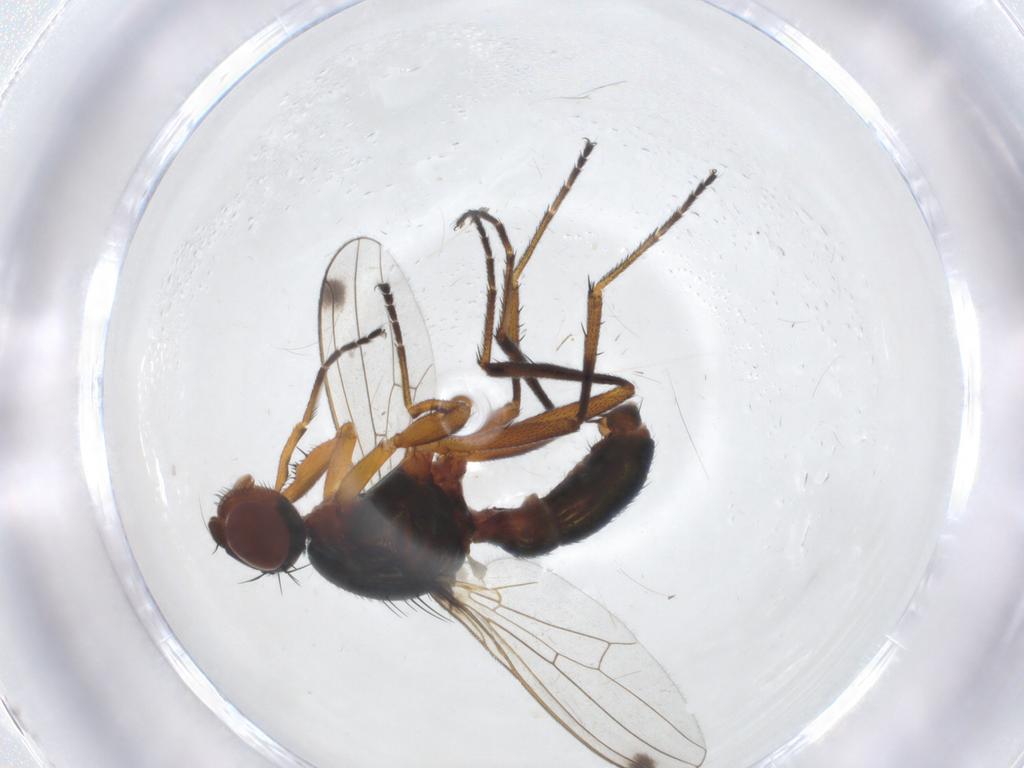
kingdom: Animalia
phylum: Arthropoda
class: Insecta
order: Diptera
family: Sepsidae
